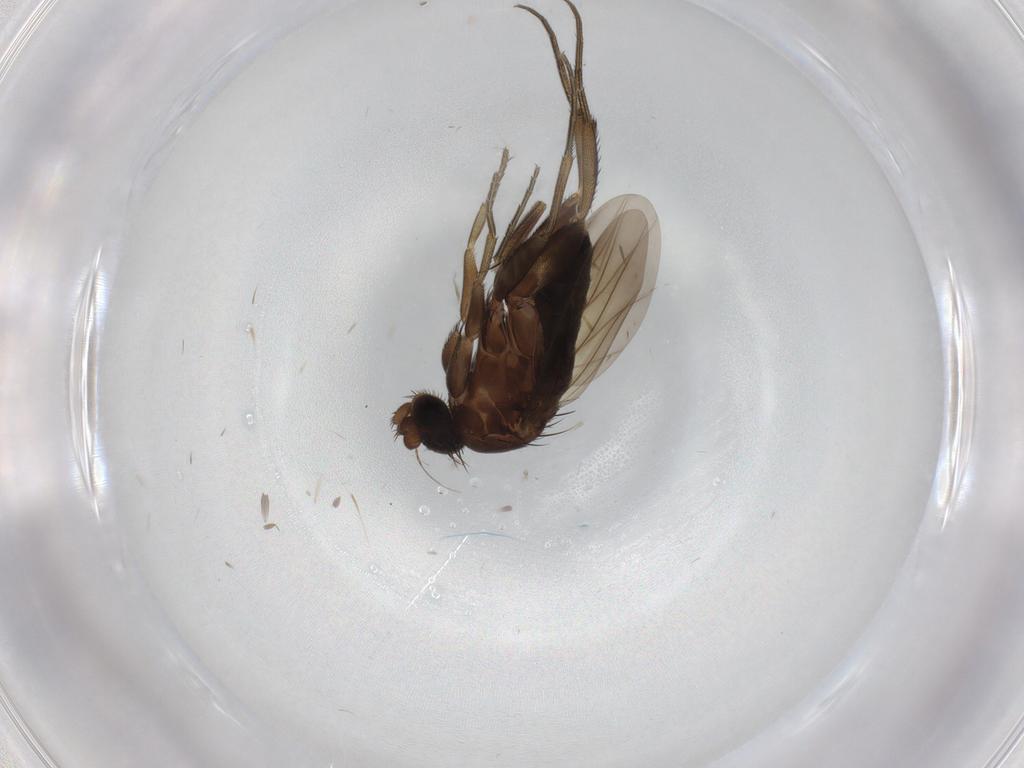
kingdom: Animalia
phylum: Arthropoda
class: Insecta
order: Diptera
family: Phoridae
